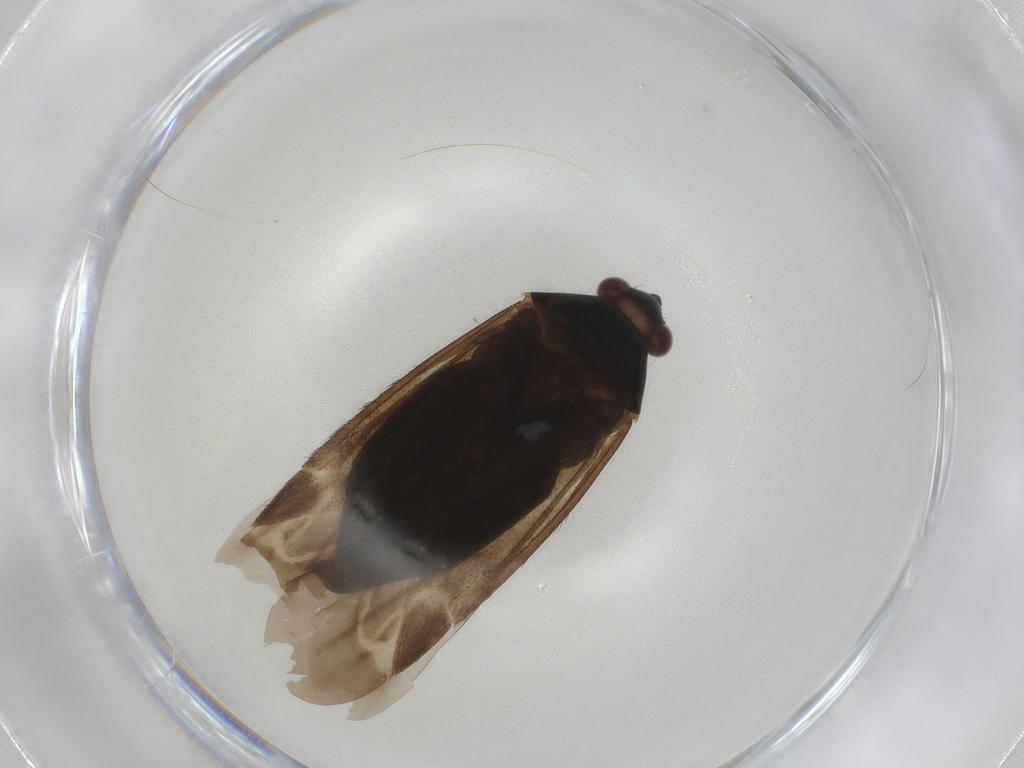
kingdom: Animalia
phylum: Arthropoda
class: Insecta
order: Hemiptera
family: Miridae
